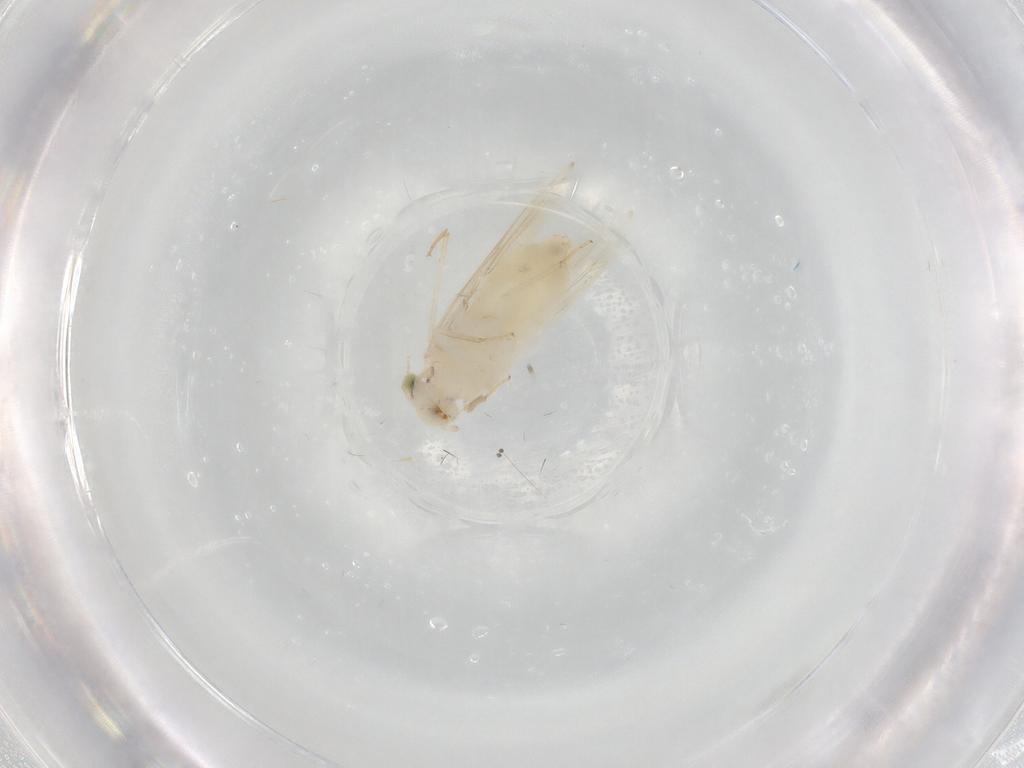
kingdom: Animalia
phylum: Arthropoda
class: Insecta
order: Psocodea
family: Lepidopsocidae
